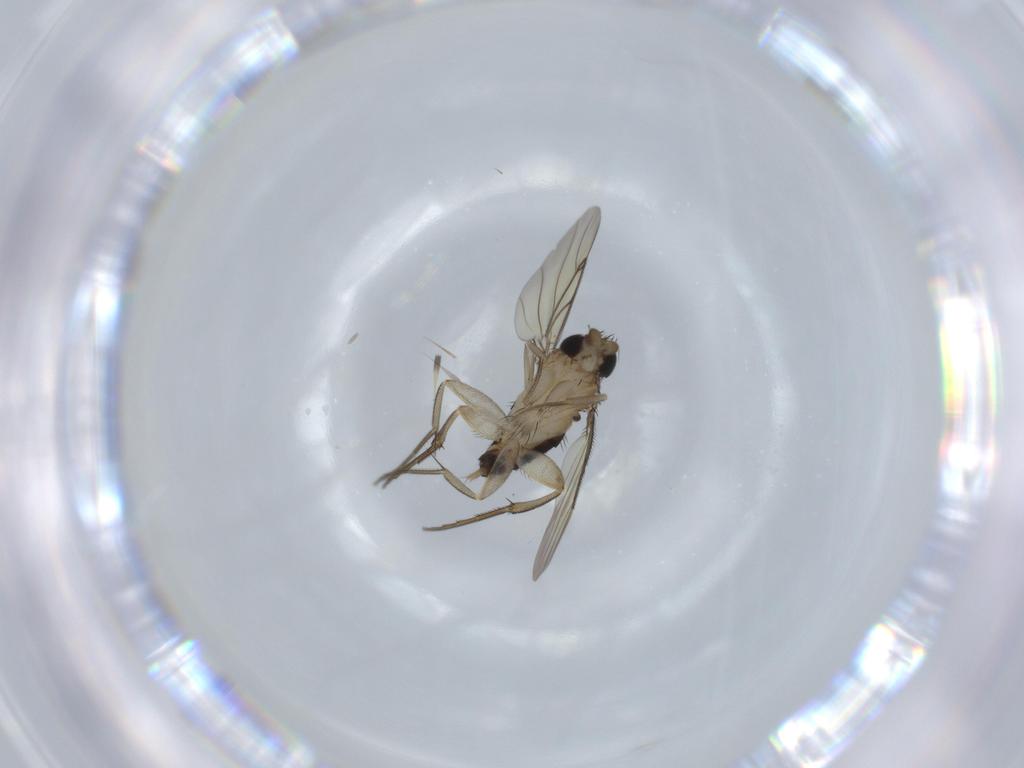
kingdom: Animalia
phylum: Arthropoda
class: Insecta
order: Diptera
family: Phoridae
